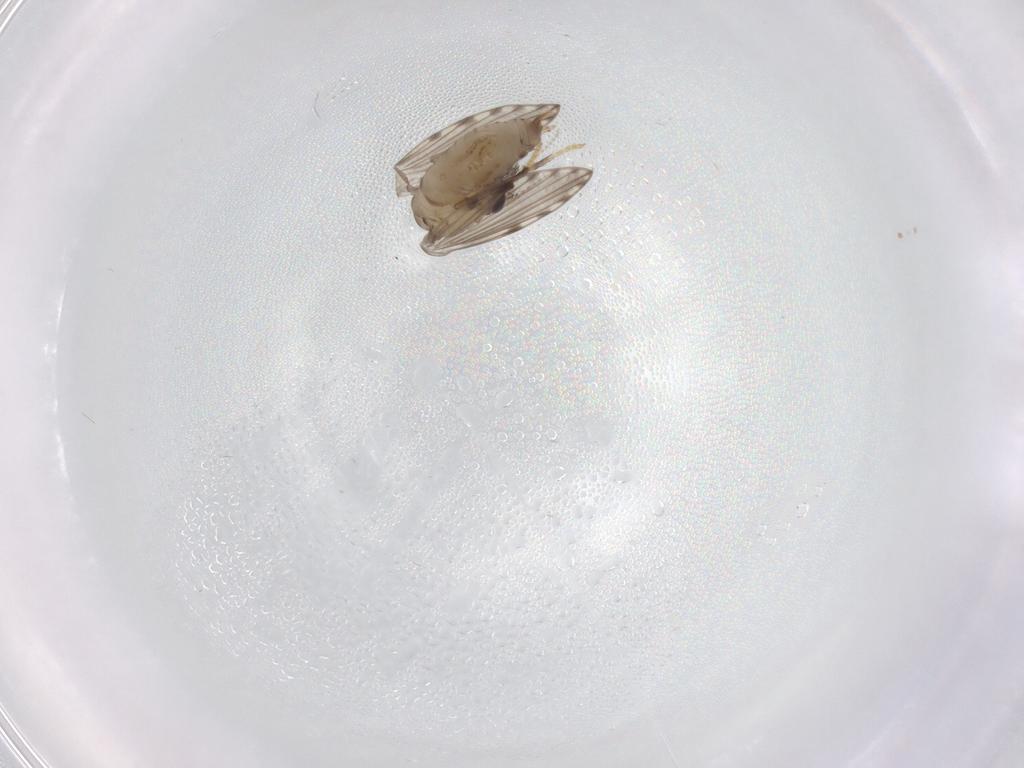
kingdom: Animalia
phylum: Arthropoda
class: Insecta
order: Diptera
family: Psychodidae
